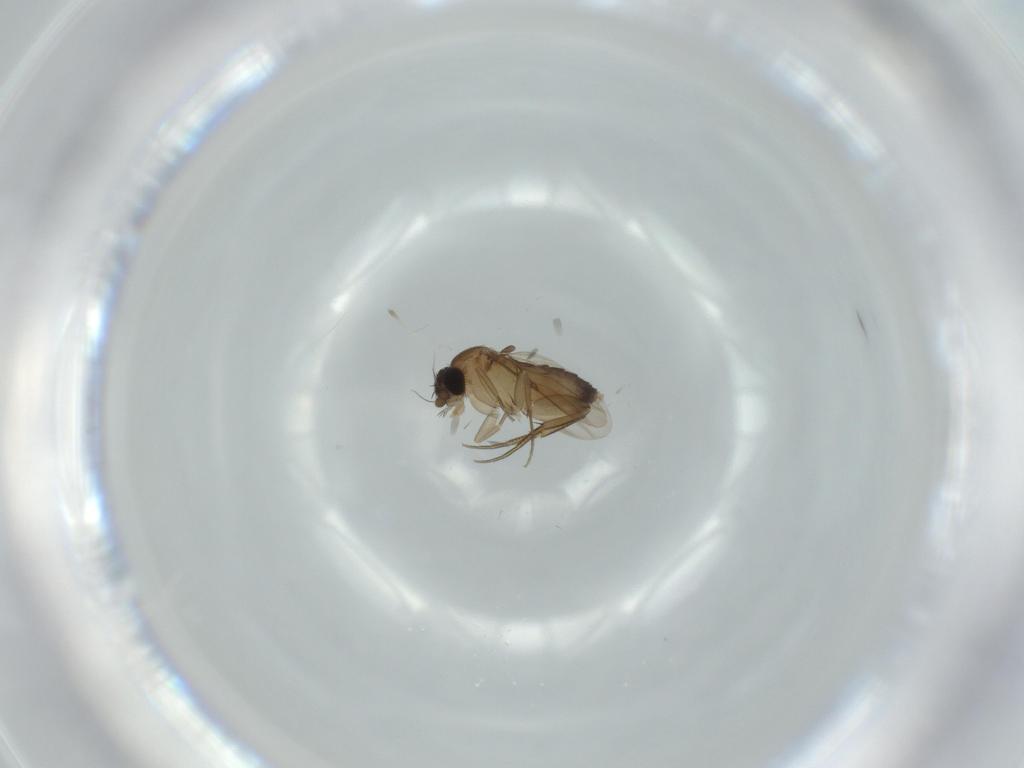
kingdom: Animalia
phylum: Arthropoda
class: Insecta
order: Diptera
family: Phoridae
